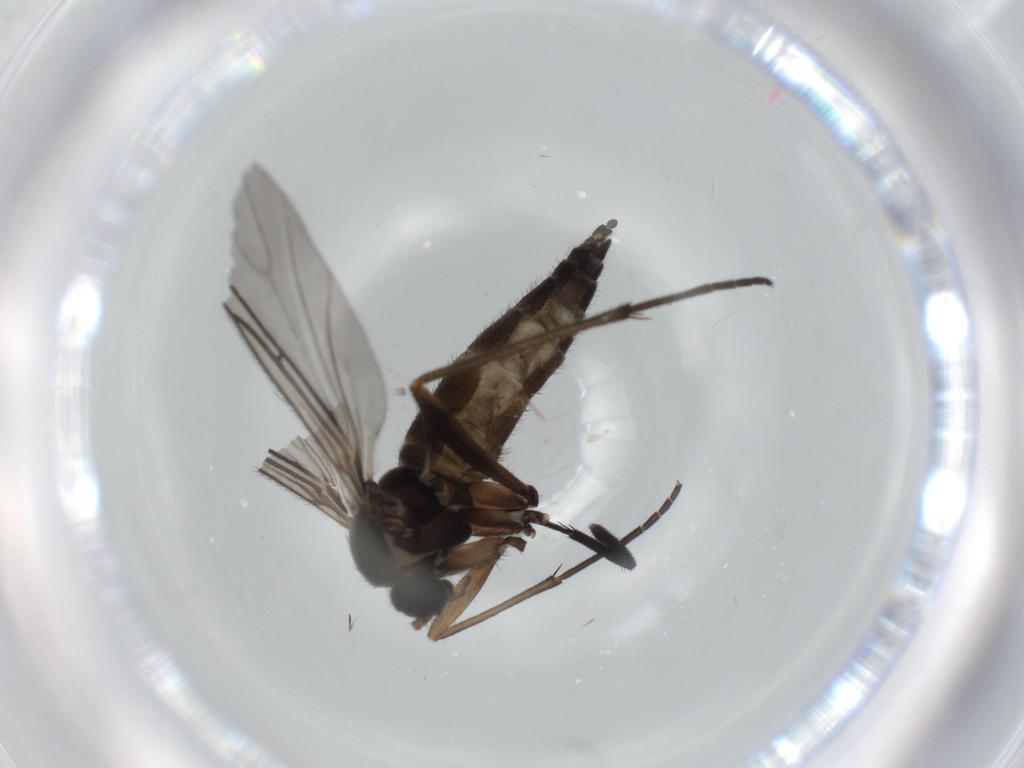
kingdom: Animalia
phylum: Arthropoda
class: Insecta
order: Diptera
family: Sciaridae
